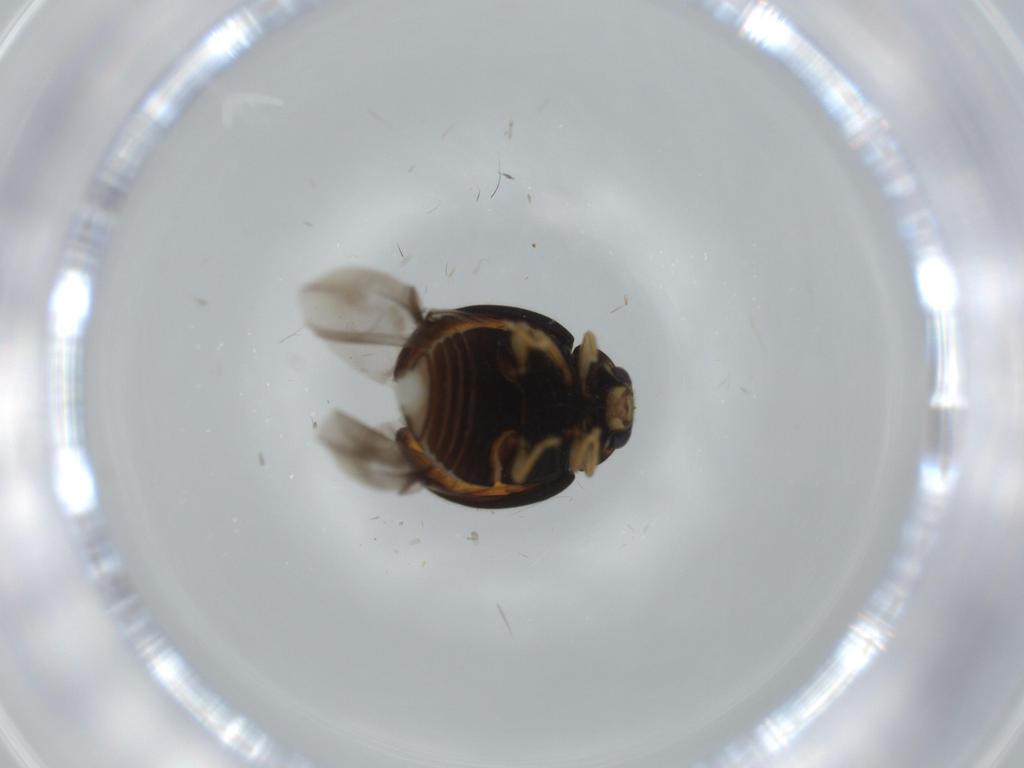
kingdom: Animalia
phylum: Arthropoda
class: Insecta
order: Coleoptera
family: Coccinellidae
